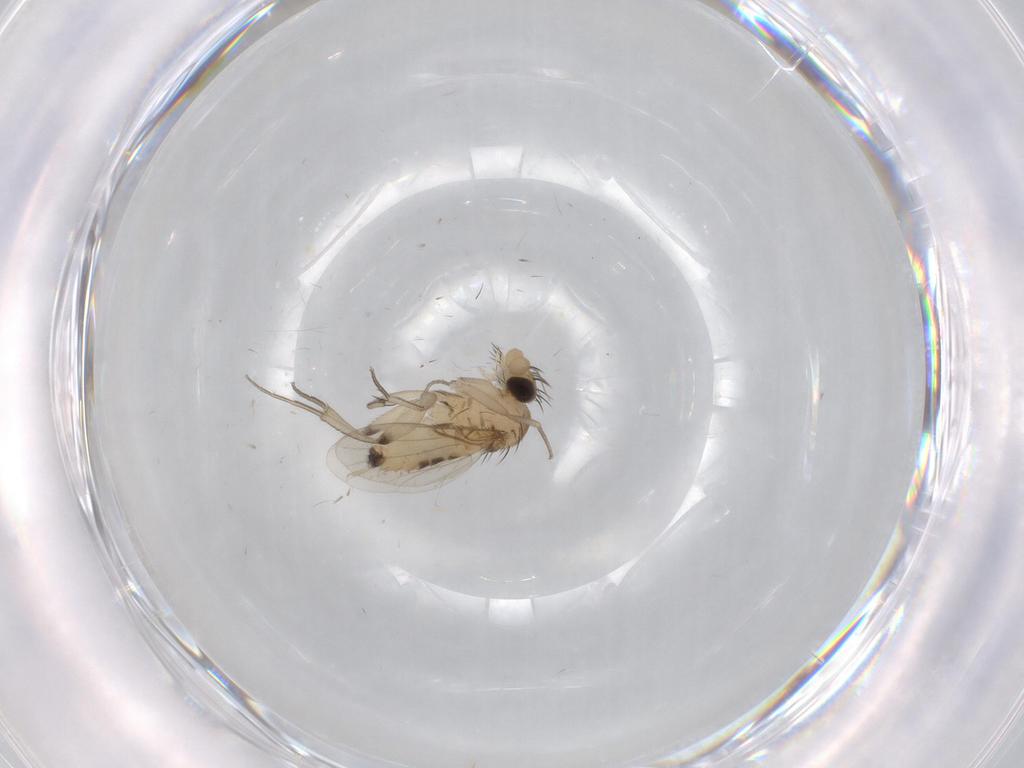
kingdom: Animalia
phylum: Arthropoda
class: Insecta
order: Diptera
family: Phoridae
